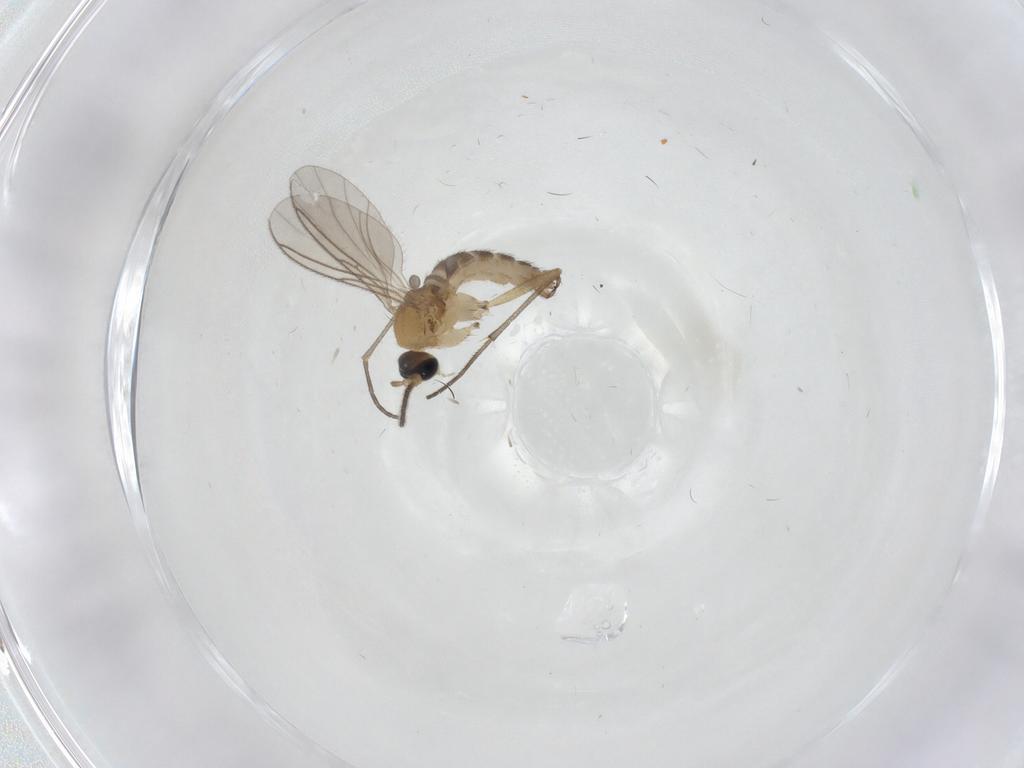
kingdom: Animalia
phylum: Arthropoda
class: Insecta
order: Diptera
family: Sciaridae
